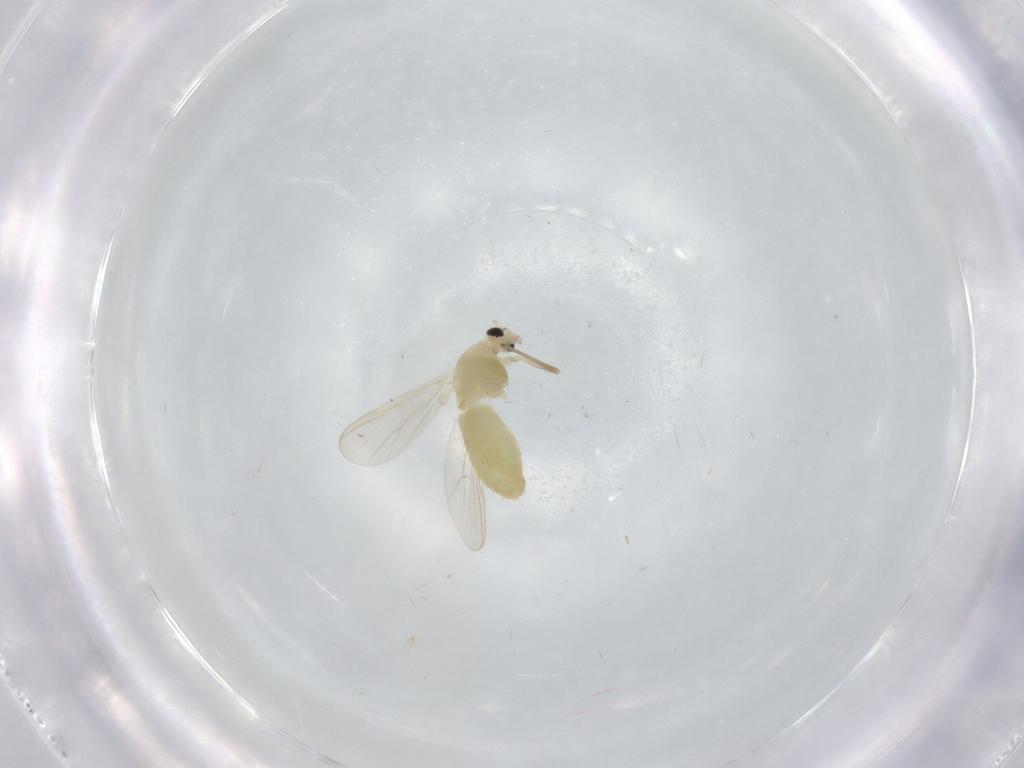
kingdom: Animalia
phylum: Arthropoda
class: Insecta
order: Diptera
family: Chironomidae
